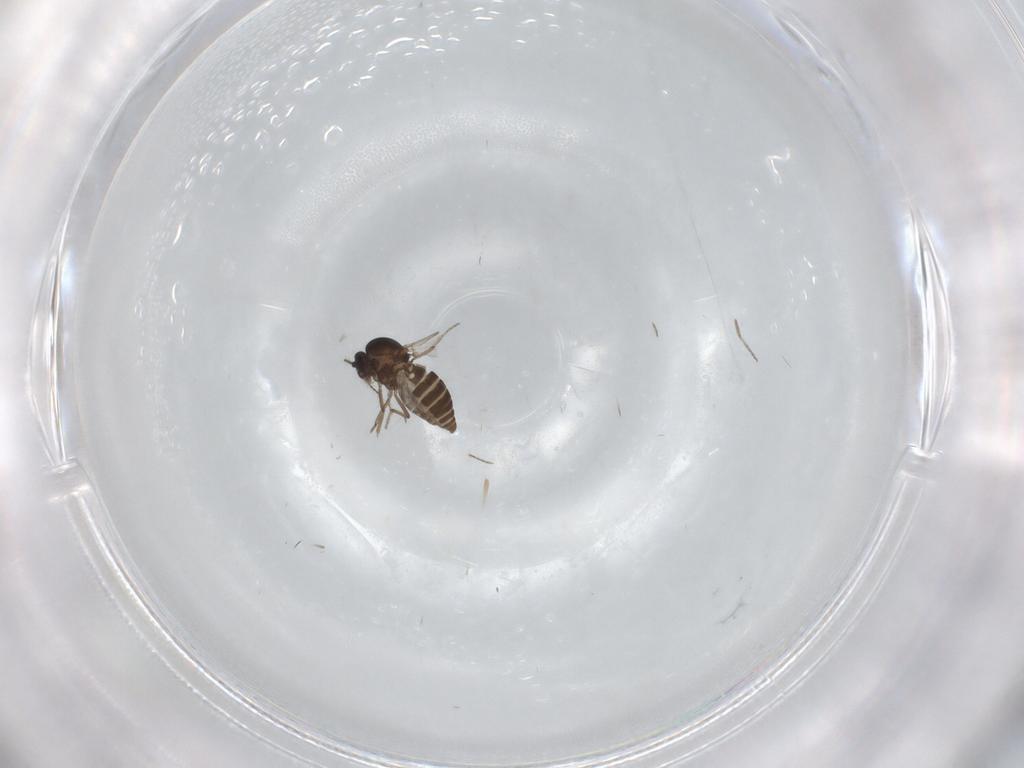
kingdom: Animalia
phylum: Arthropoda
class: Insecta
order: Diptera
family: Ceratopogonidae
